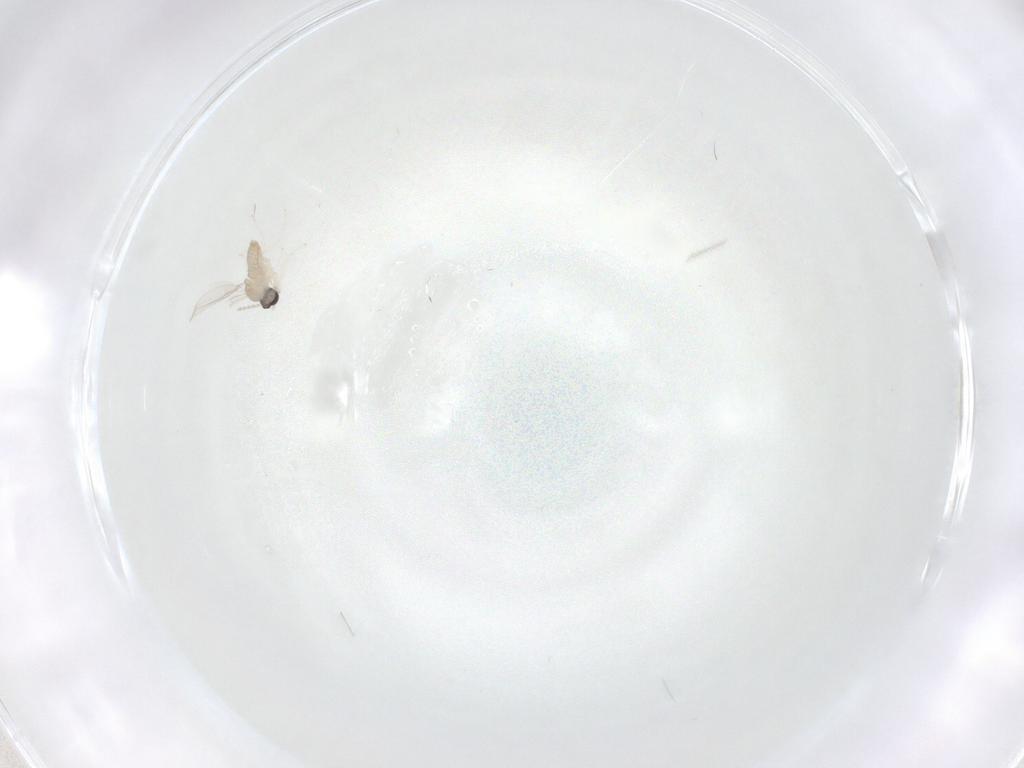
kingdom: Animalia
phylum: Arthropoda
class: Insecta
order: Diptera
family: Cecidomyiidae
